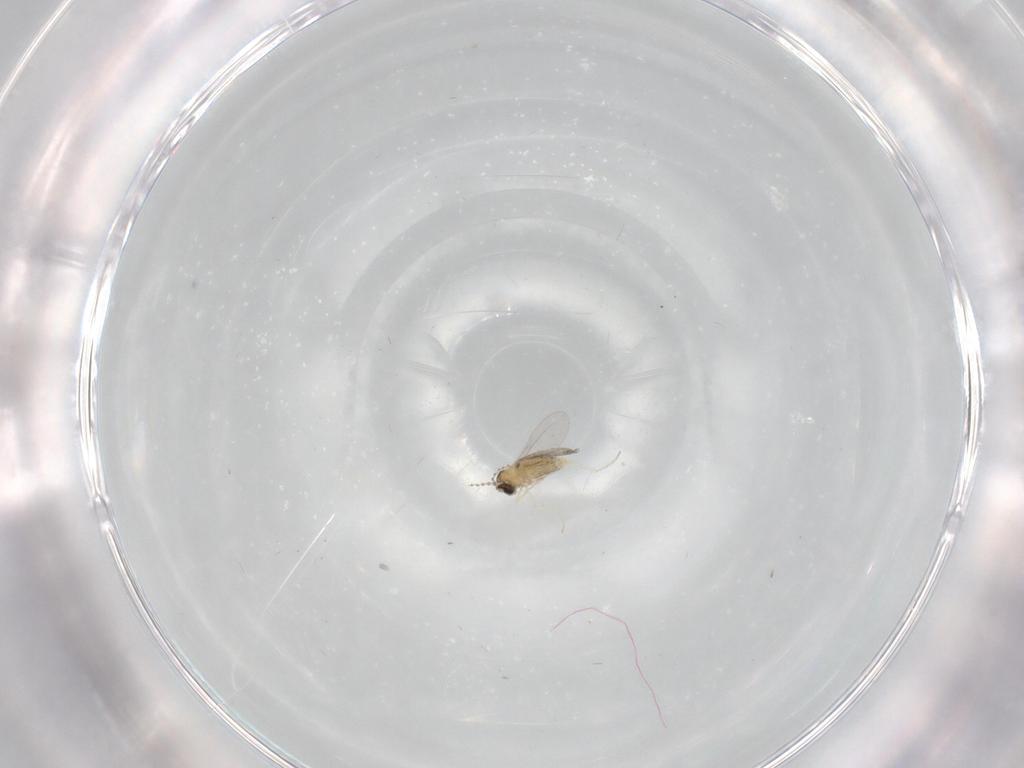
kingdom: Animalia
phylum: Arthropoda
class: Insecta
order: Diptera
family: Cecidomyiidae
